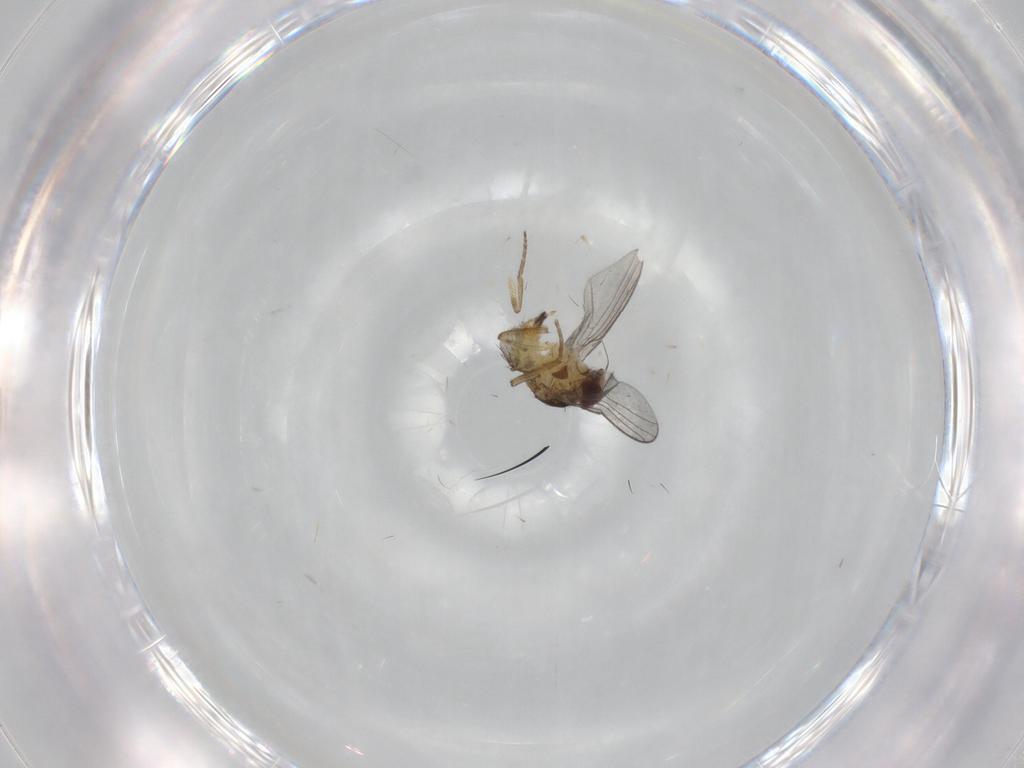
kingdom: Animalia
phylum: Arthropoda
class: Insecta
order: Diptera
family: Agromyzidae
